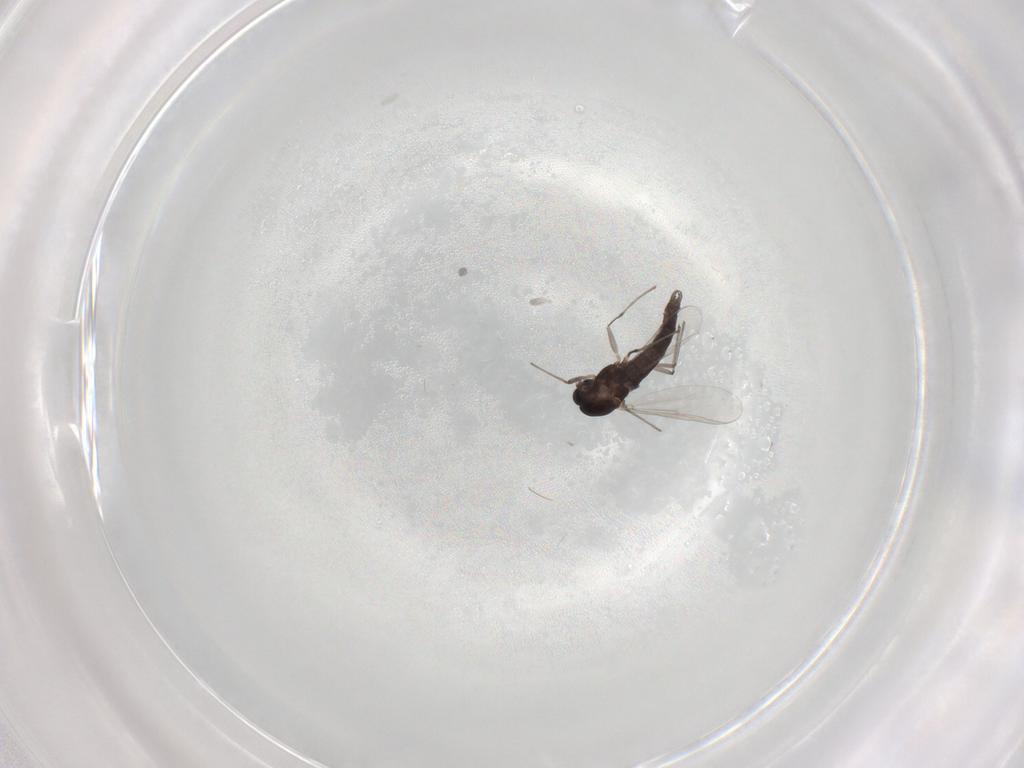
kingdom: Animalia
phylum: Arthropoda
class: Insecta
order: Diptera
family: Chironomidae
